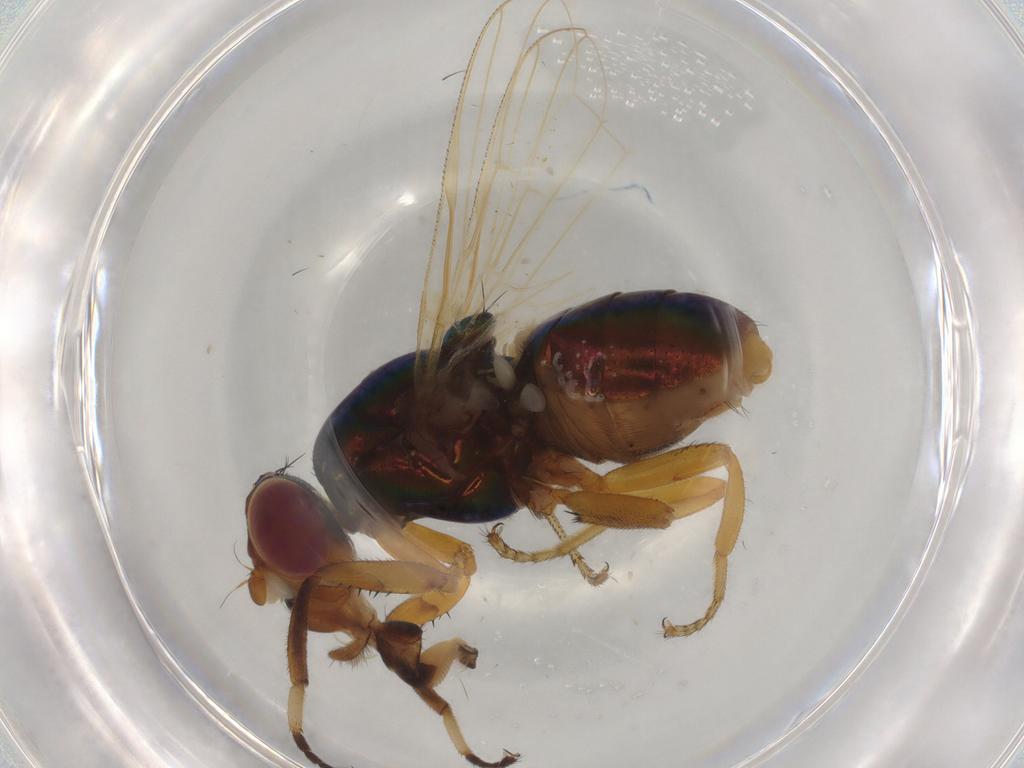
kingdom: Animalia
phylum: Arthropoda
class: Insecta
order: Diptera
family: Ulidiidae
